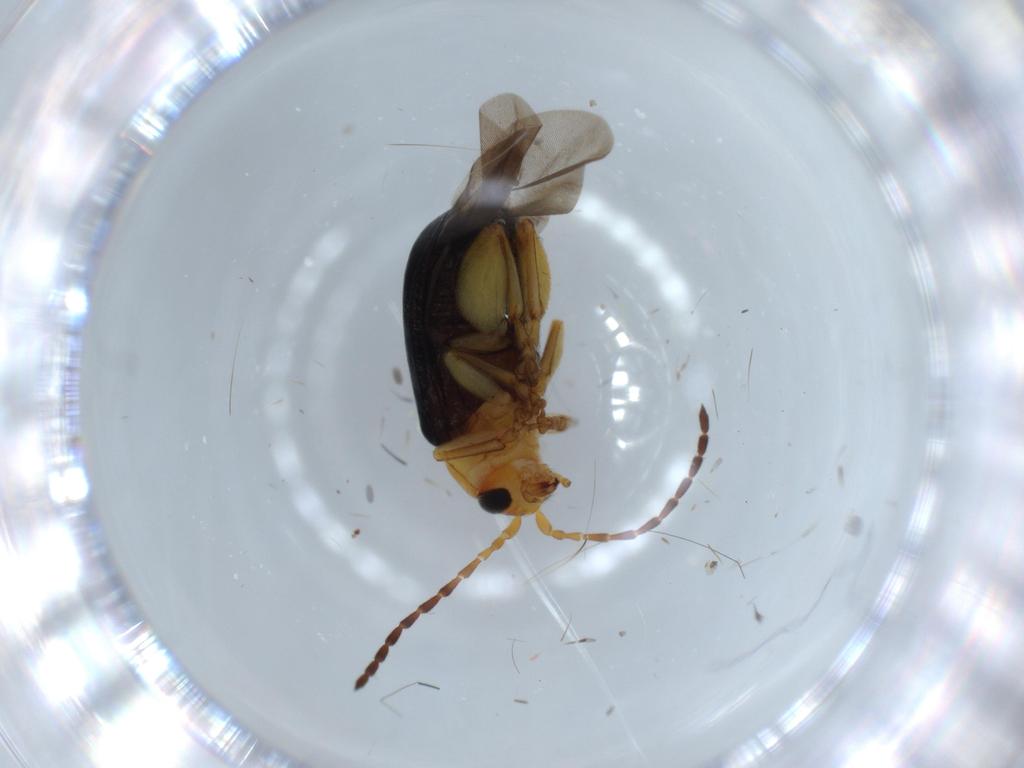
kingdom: Animalia
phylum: Arthropoda
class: Insecta
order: Coleoptera
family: Chrysomelidae
